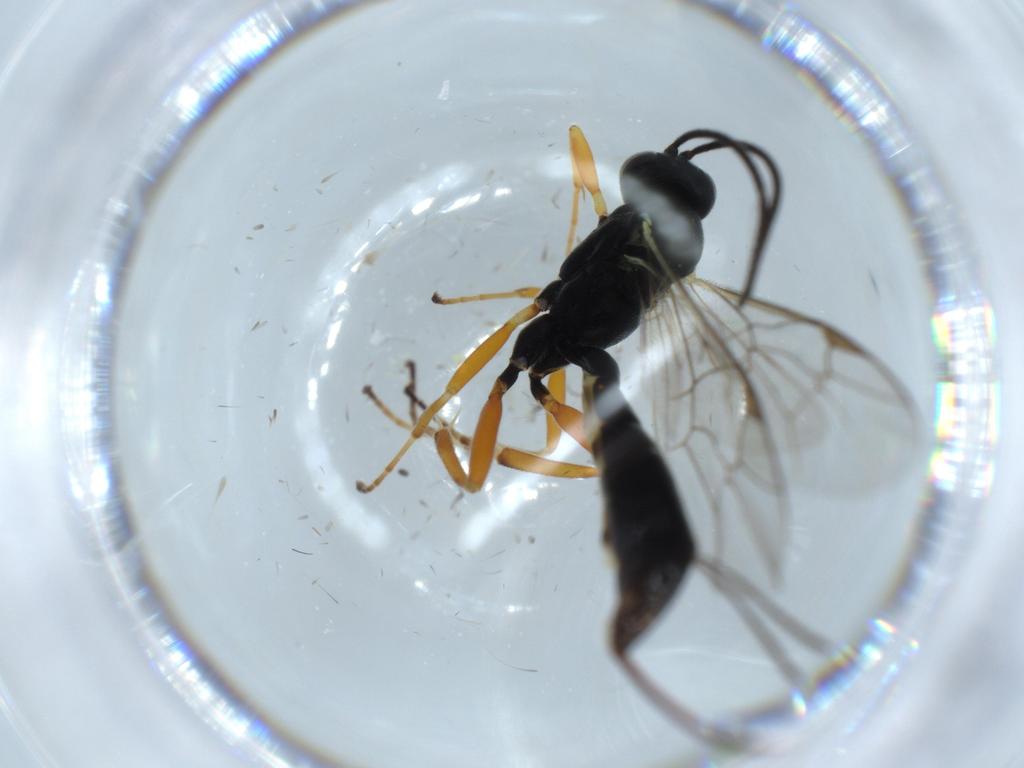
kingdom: Animalia
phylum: Arthropoda
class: Insecta
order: Hymenoptera
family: Ichneumonidae
